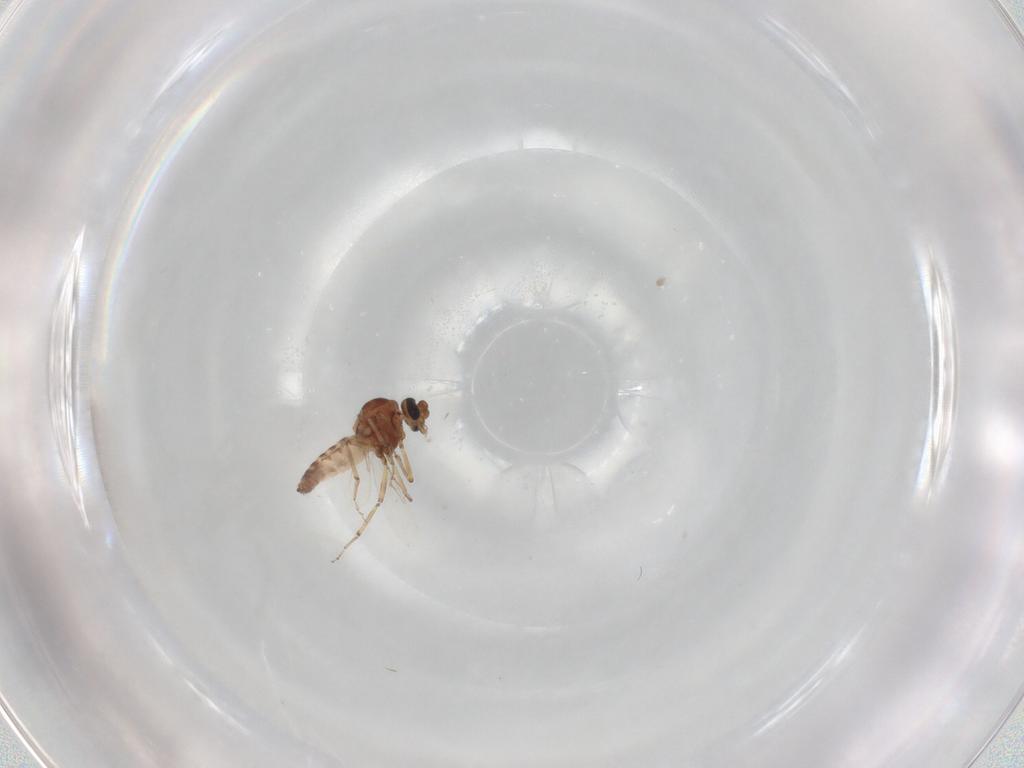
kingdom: Animalia
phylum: Arthropoda
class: Insecta
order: Diptera
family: Ceratopogonidae
